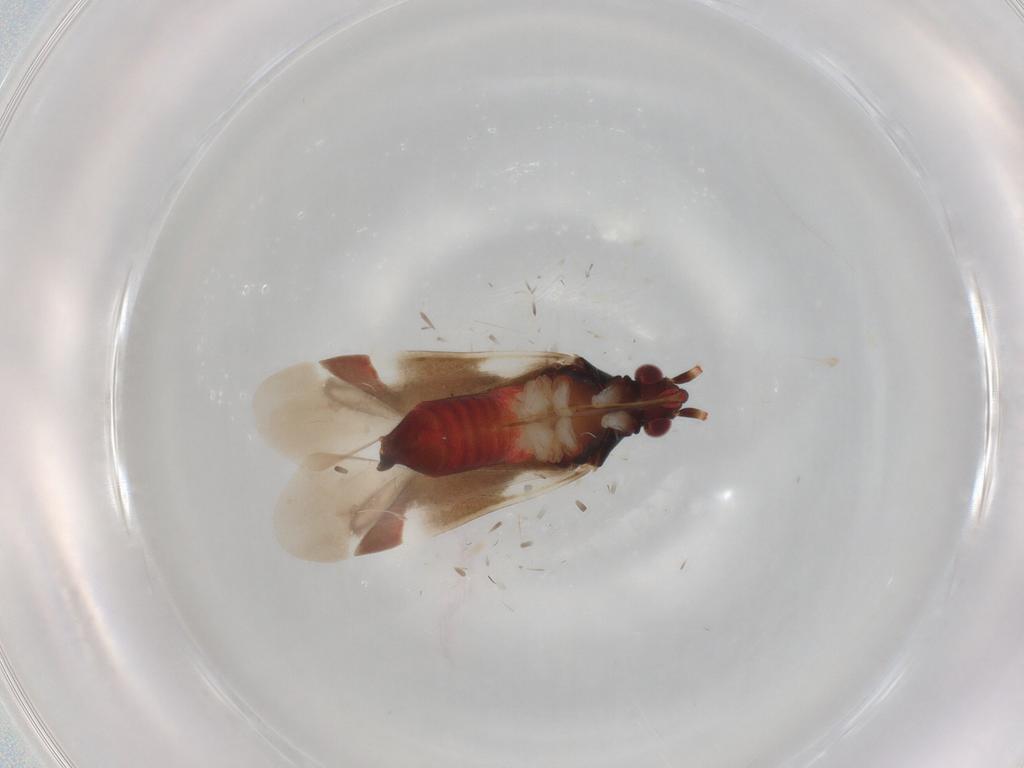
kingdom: Animalia
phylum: Arthropoda
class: Insecta
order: Hemiptera
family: Miridae
